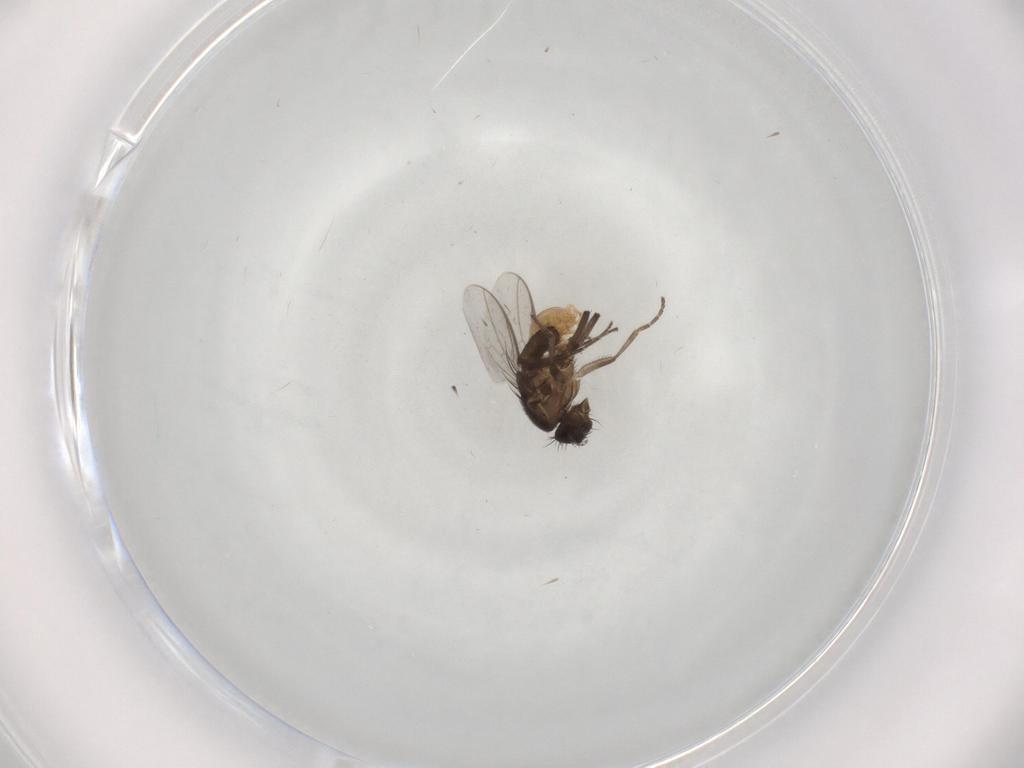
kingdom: Animalia
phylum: Arthropoda
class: Insecta
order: Diptera
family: Sphaeroceridae
